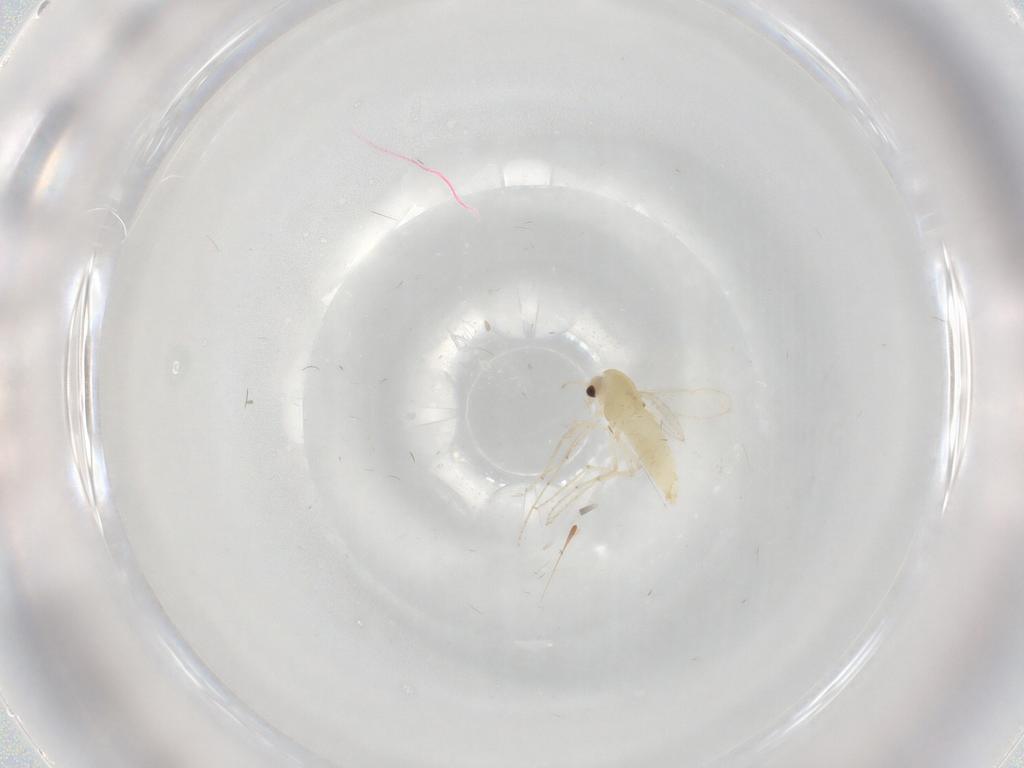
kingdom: Animalia
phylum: Arthropoda
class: Insecta
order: Diptera
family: Chironomidae
